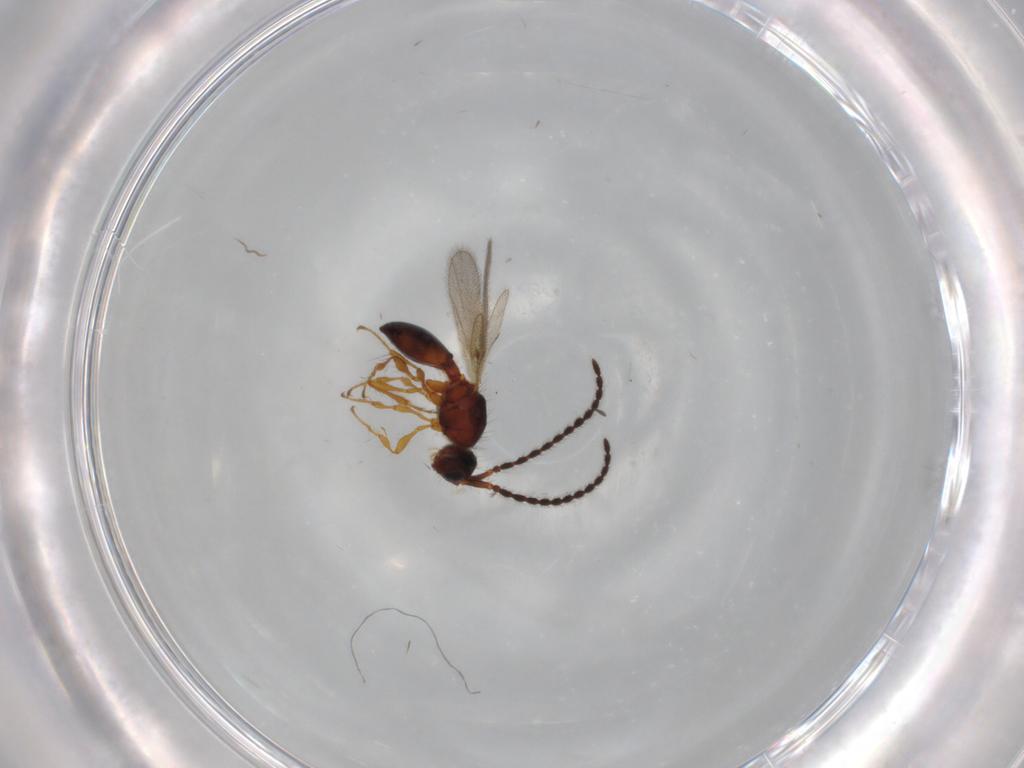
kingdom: Animalia
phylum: Arthropoda
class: Insecta
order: Hymenoptera
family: Diapriidae
